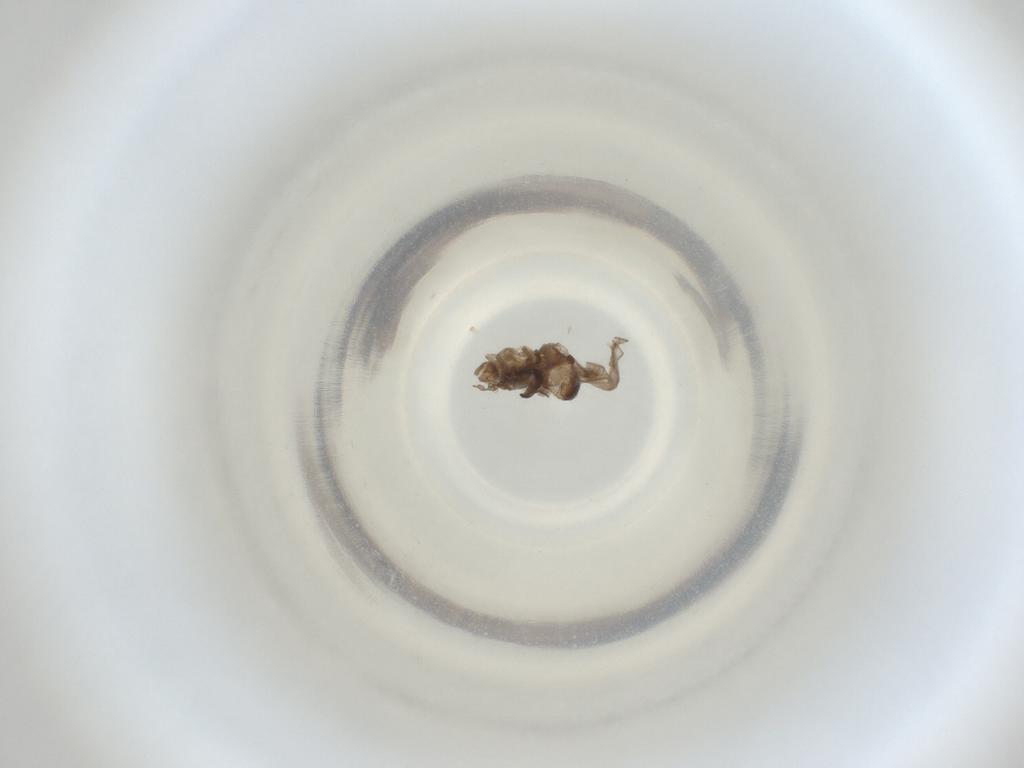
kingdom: Animalia
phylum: Arthropoda
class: Insecta
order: Diptera
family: Cecidomyiidae
